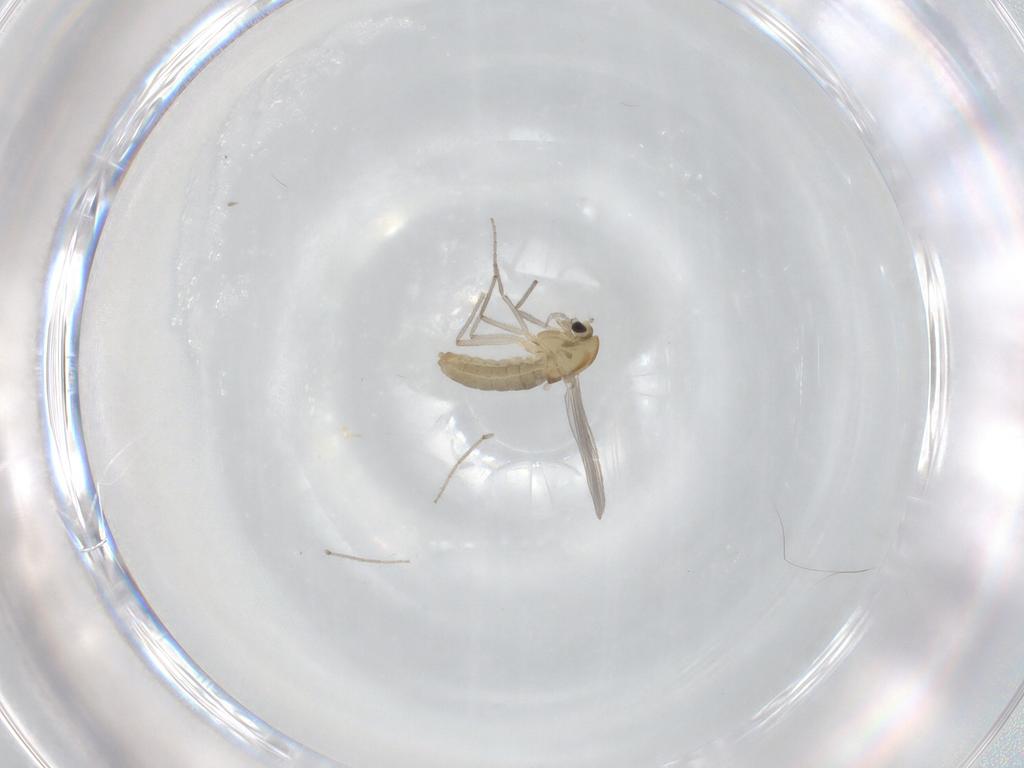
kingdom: Animalia
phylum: Arthropoda
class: Insecta
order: Diptera
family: Chironomidae
